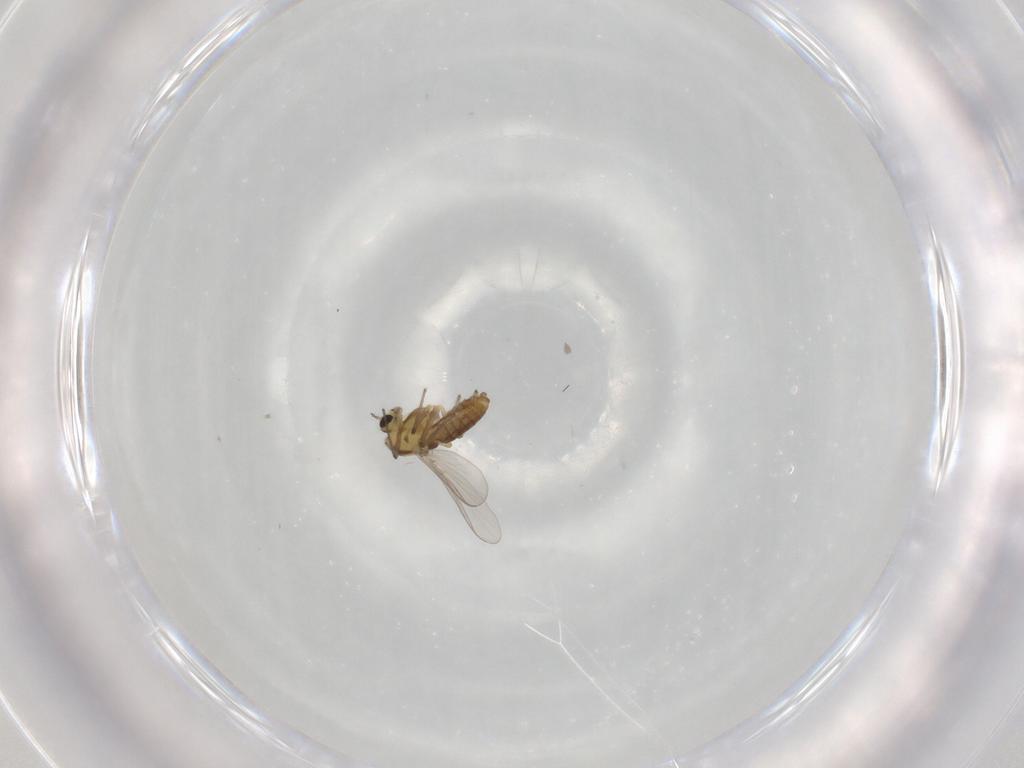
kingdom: Animalia
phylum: Arthropoda
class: Insecta
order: Diptera
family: Chironomidae
